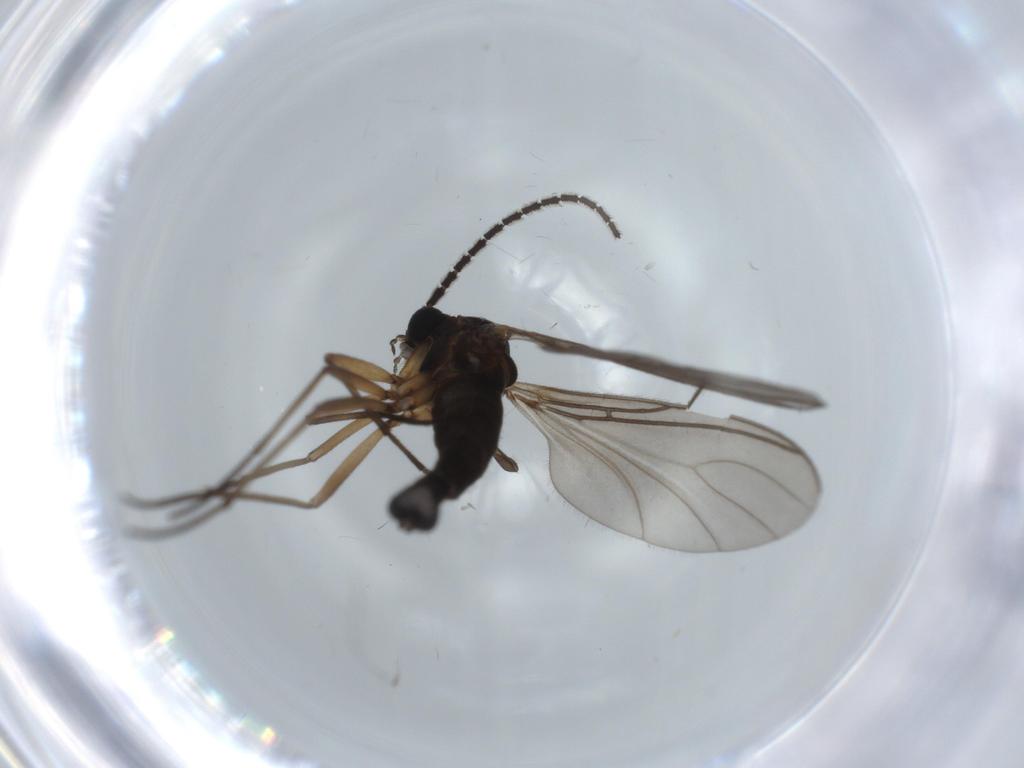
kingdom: Animalia
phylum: Arthropoda
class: Insecta
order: Diptera
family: Sciaridae
